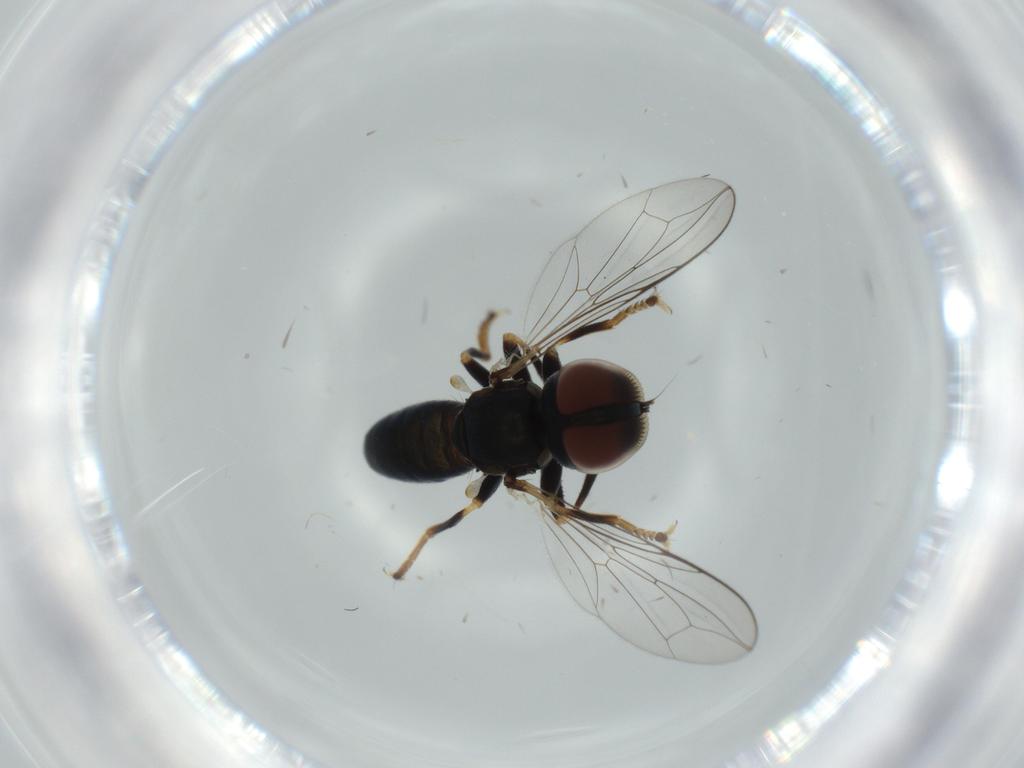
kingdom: Animalia
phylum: Arthropoda
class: Insecta
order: Diptera
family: Pipunculidae
